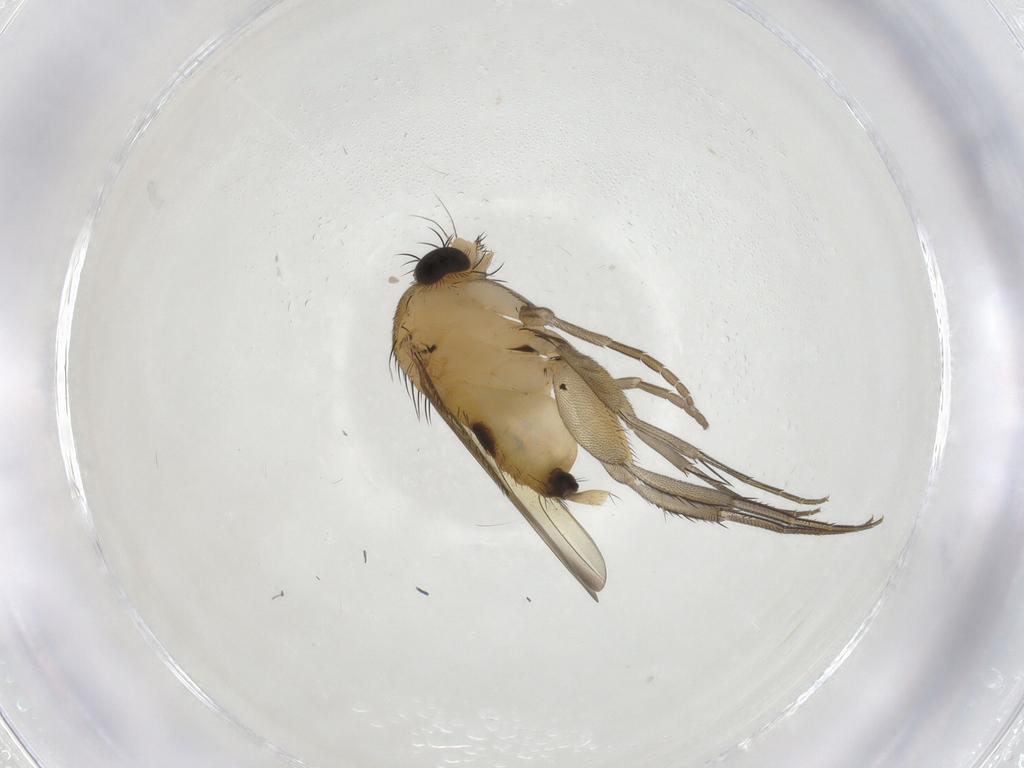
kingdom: Animalia
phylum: Arthropoda
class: Insecta
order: Diptera
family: Phoridae
